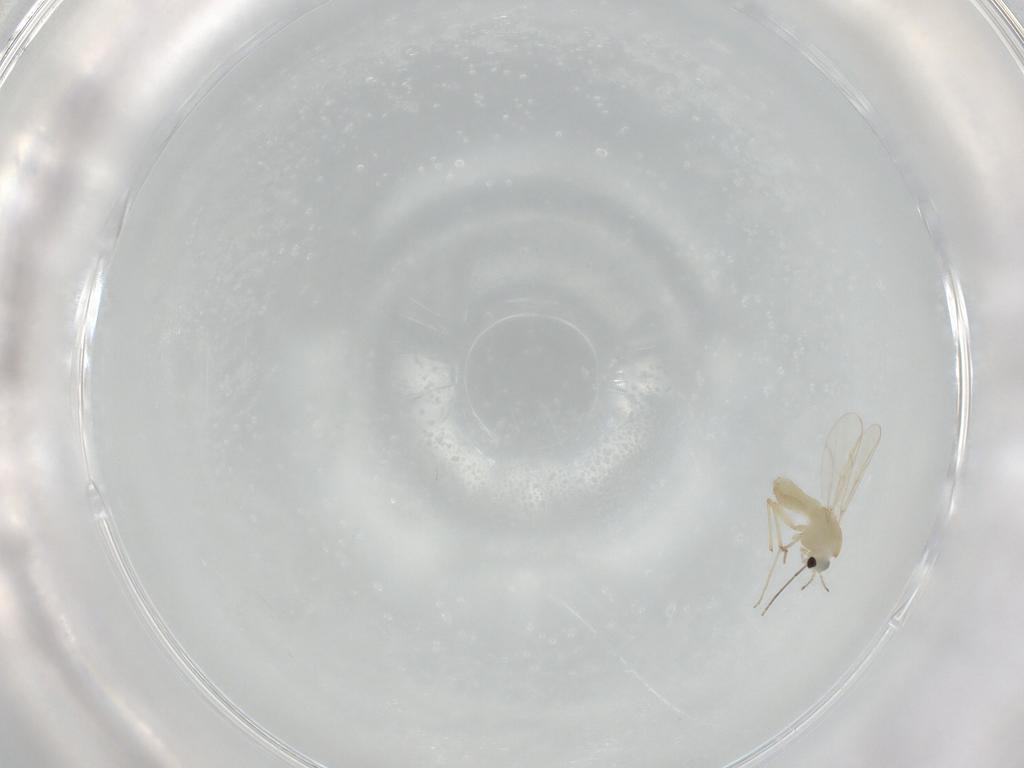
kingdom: Animalia
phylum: Arthropoda
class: Insecta
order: Diptera
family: Chironomidae
